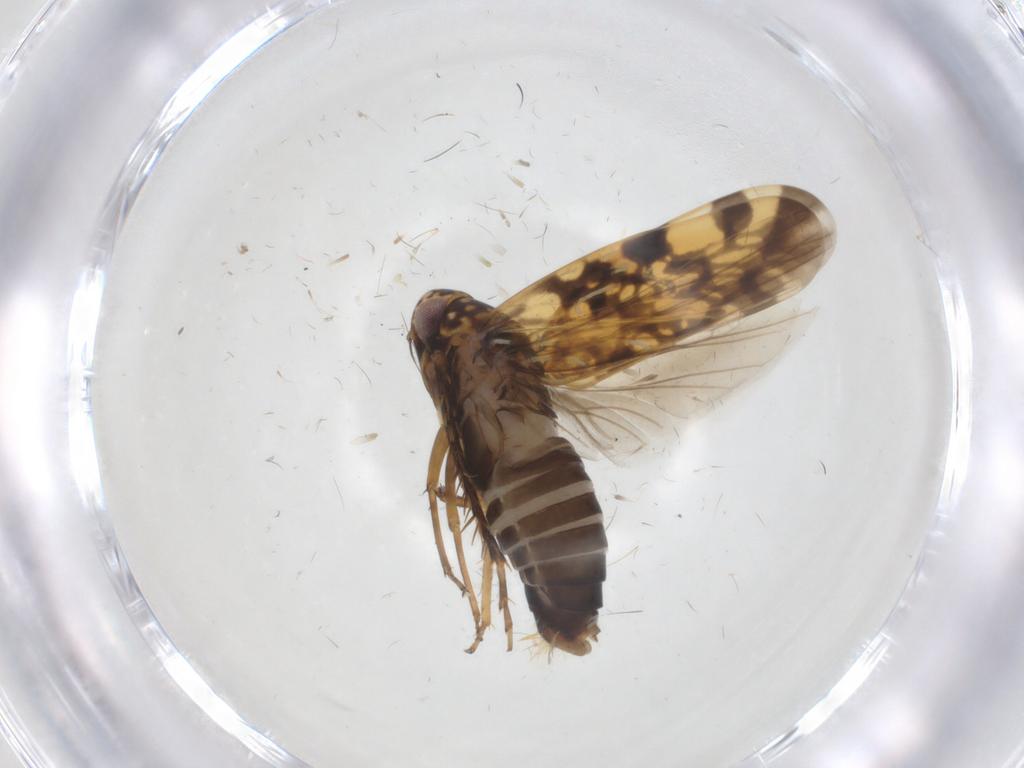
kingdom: Animalia
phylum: Arthropoda
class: Insecta
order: Hemiptera
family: Cicadellidae
